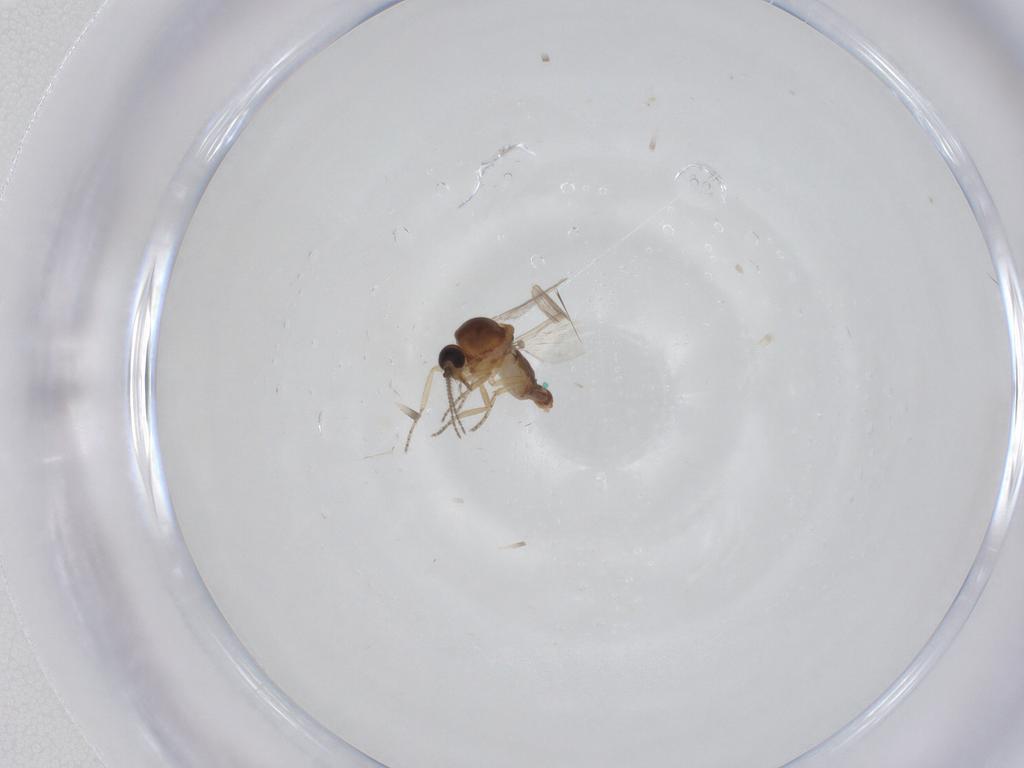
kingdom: Animalia
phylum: Arthropoda
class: Insecta
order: Diptera
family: Ceratopogonidae
